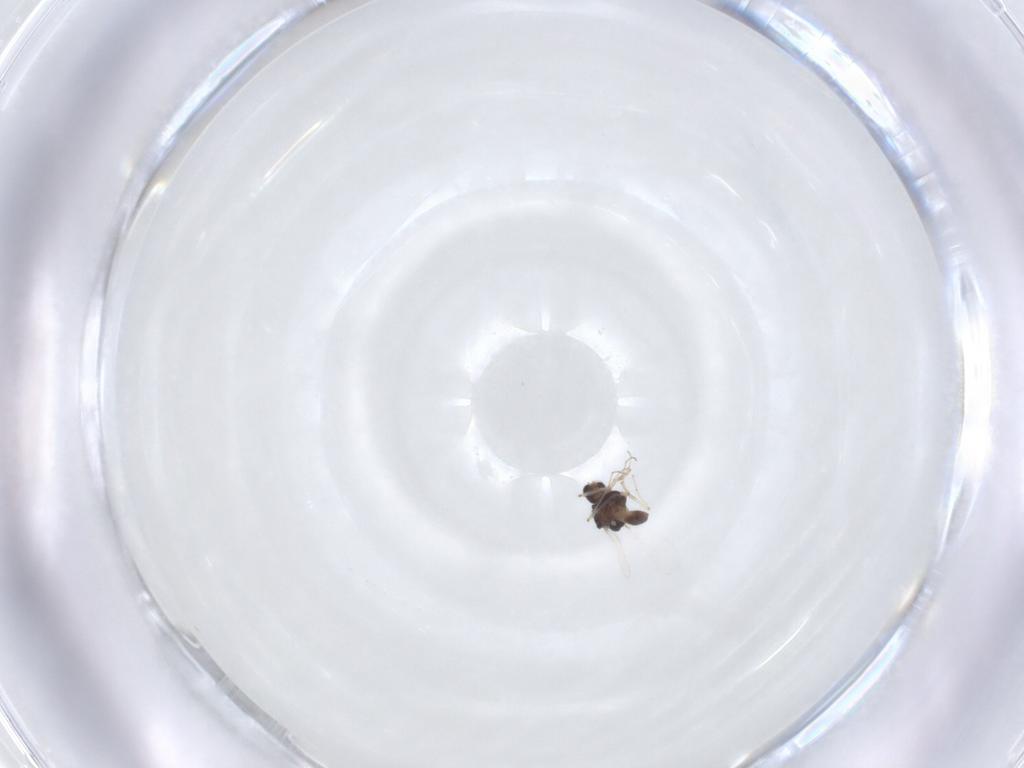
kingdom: Animalia
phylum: Arthropoda
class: Insecta
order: Diptera
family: Chironomidae
